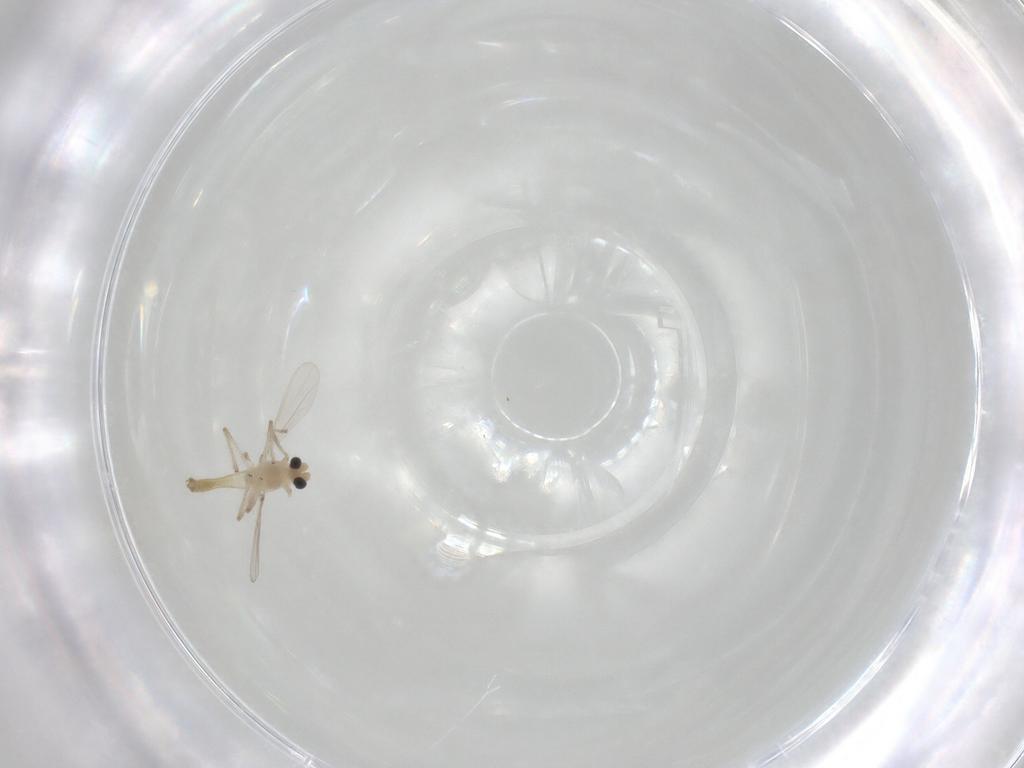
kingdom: Animalia
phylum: Arthropoda
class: Insecta
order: Diptera
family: Chironomidae
